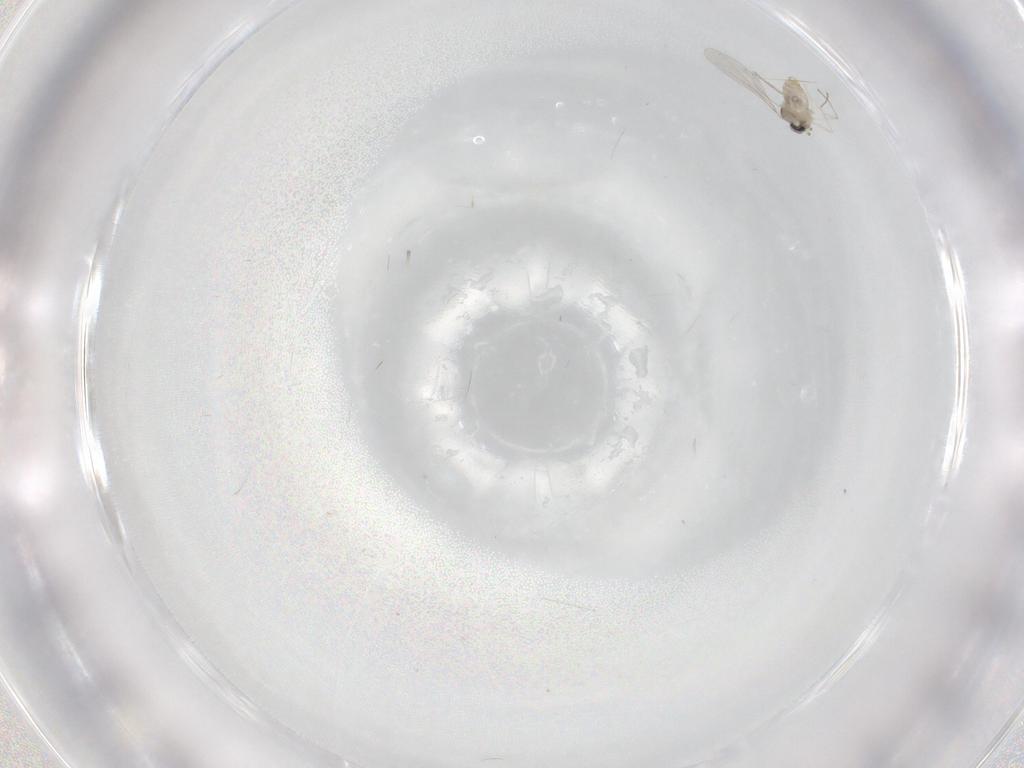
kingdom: Animalia
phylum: Arthropoda
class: Insecta
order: Diptera
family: Cecidomyiidae
